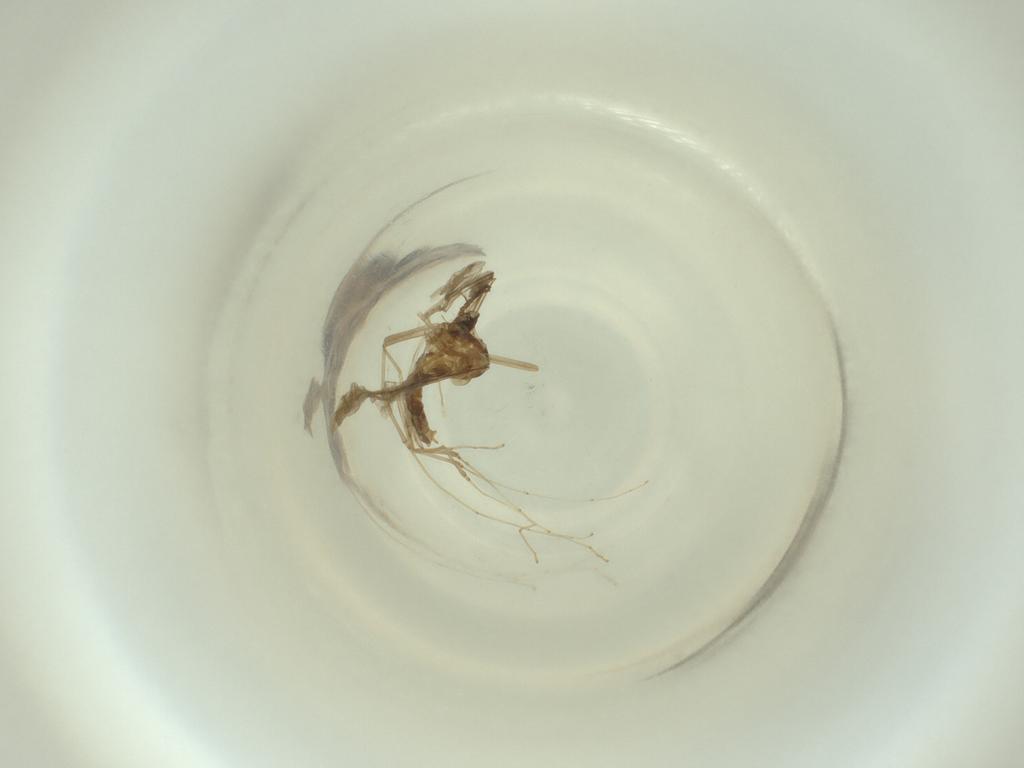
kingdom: Animalia
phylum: Arthropoda
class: Insecta
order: Diptera
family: Cecidomyiidae
